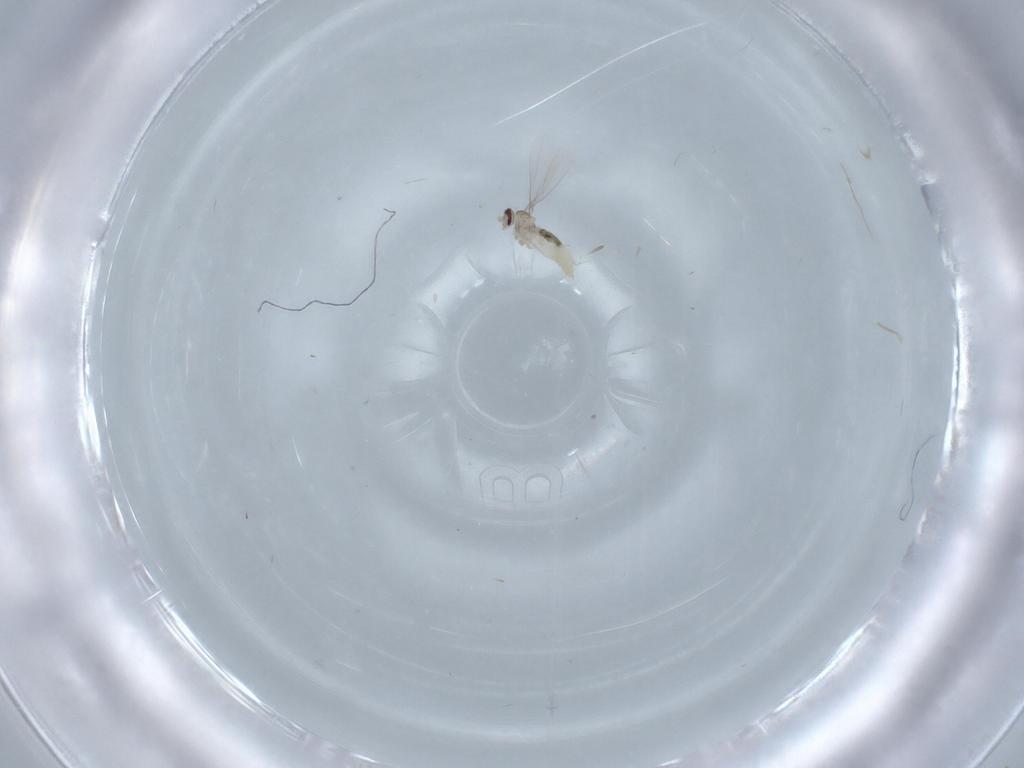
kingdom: Animalia
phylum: Arthropoda
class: Insecta
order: Diptera
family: Cecidomyiidae
